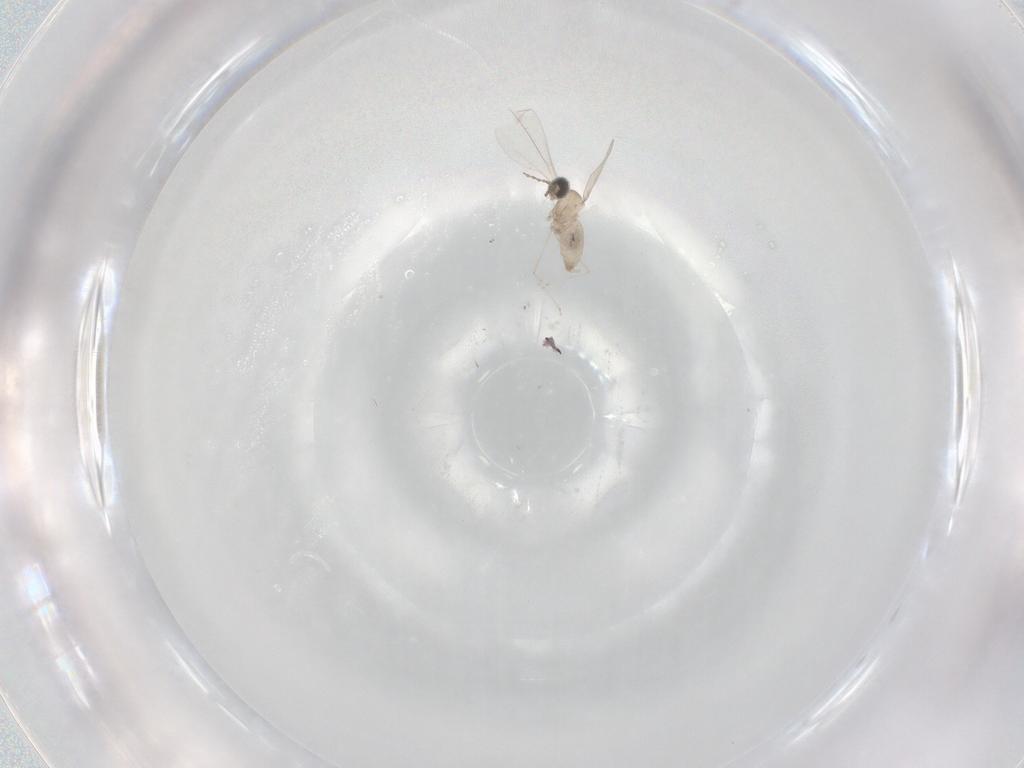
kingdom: Animalia
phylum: Arthropoda
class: Insecta
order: Diptera
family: Cecidomyiidae
